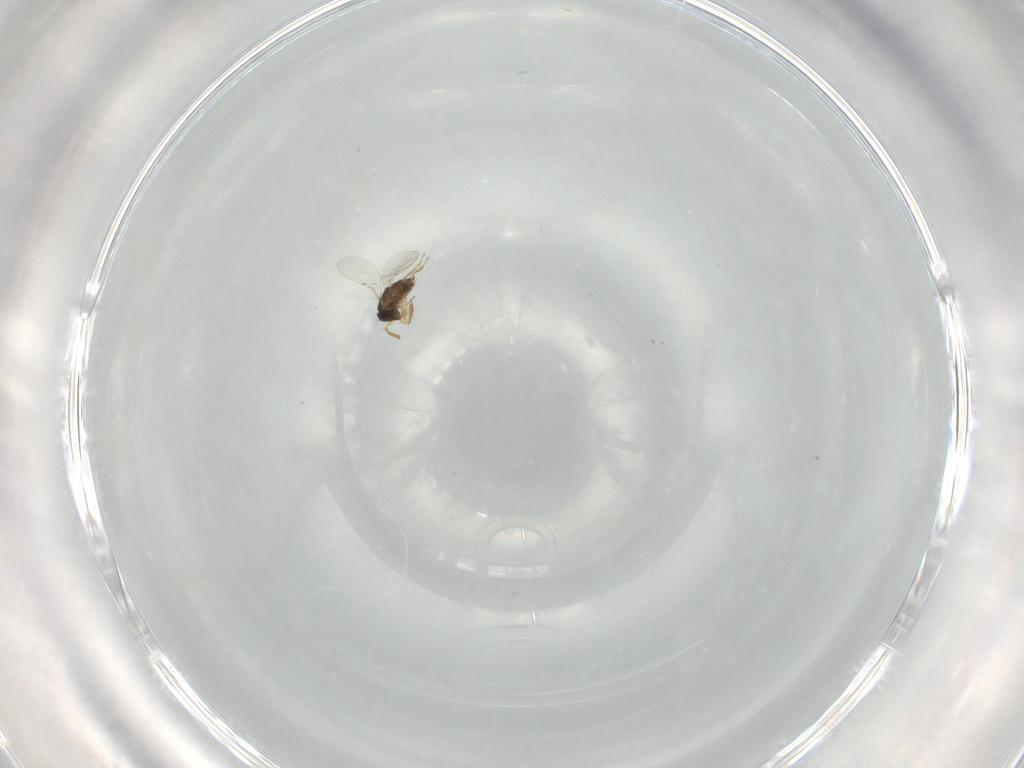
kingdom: Animalia
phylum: Arthropoda
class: Insecta
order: Hymenoptera
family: Encyrtidae
